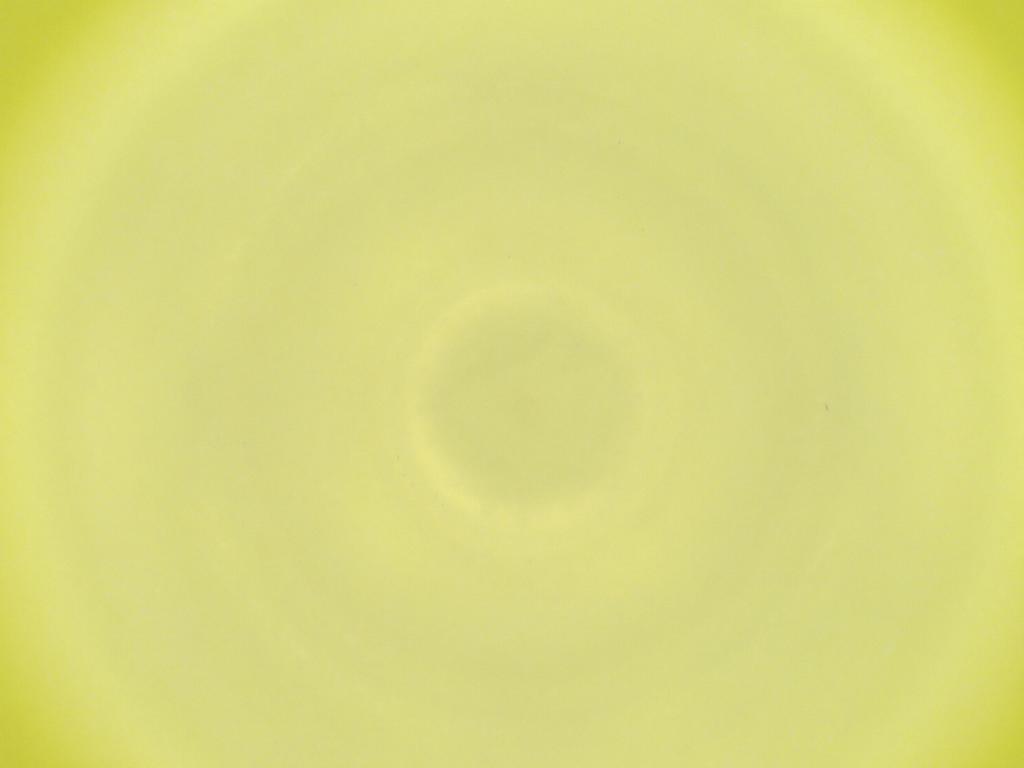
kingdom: Animalia
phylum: Arthropoda
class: Insecta
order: Diptera
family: Cecidomyiidae
